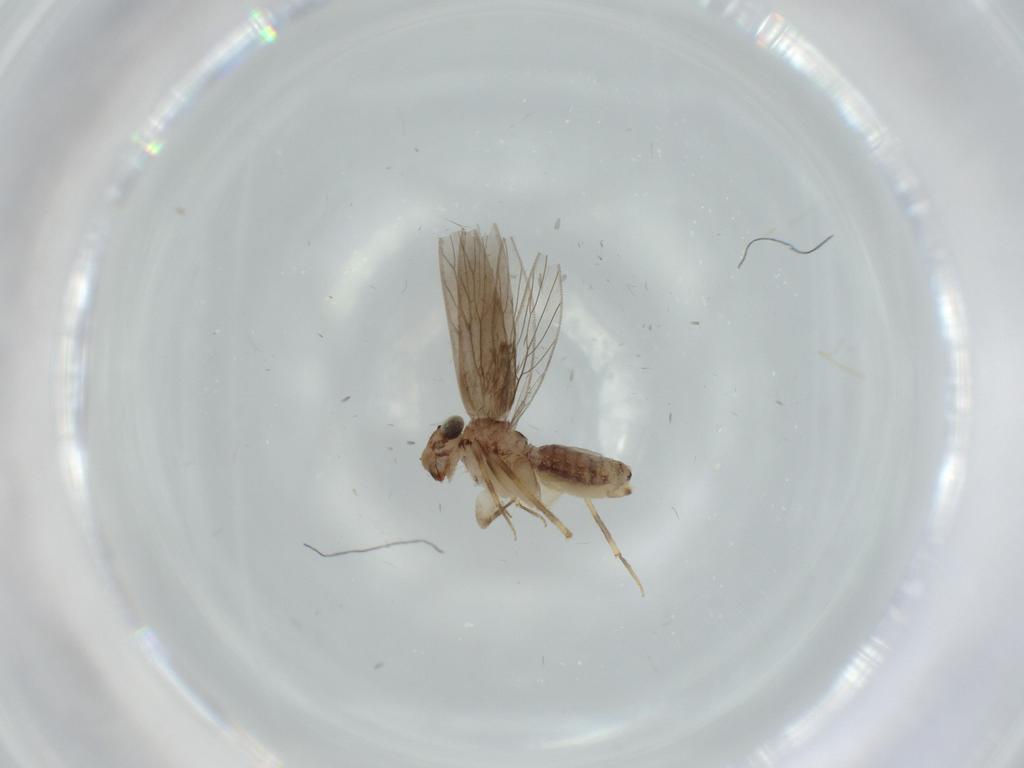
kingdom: Animalia
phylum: Arthropoda
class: Insecta
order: Psocodea
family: Lepidopsocidae
